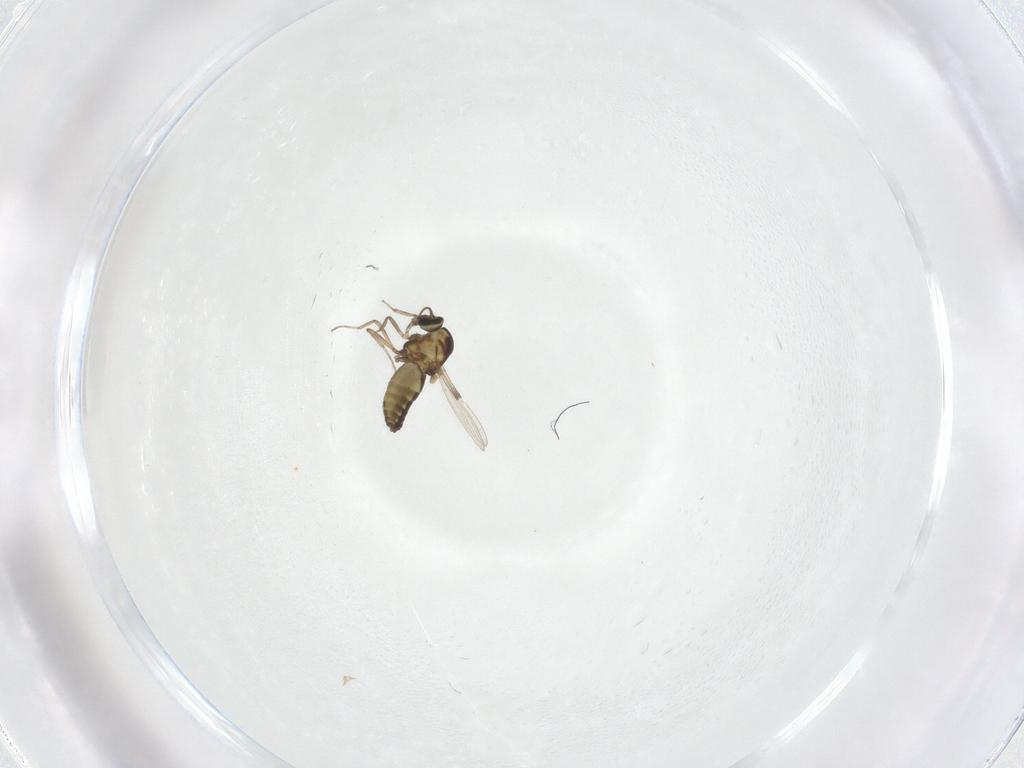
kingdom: Animalia
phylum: Arthropoda
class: Insecta
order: Diptera
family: Ceratopogonidae
